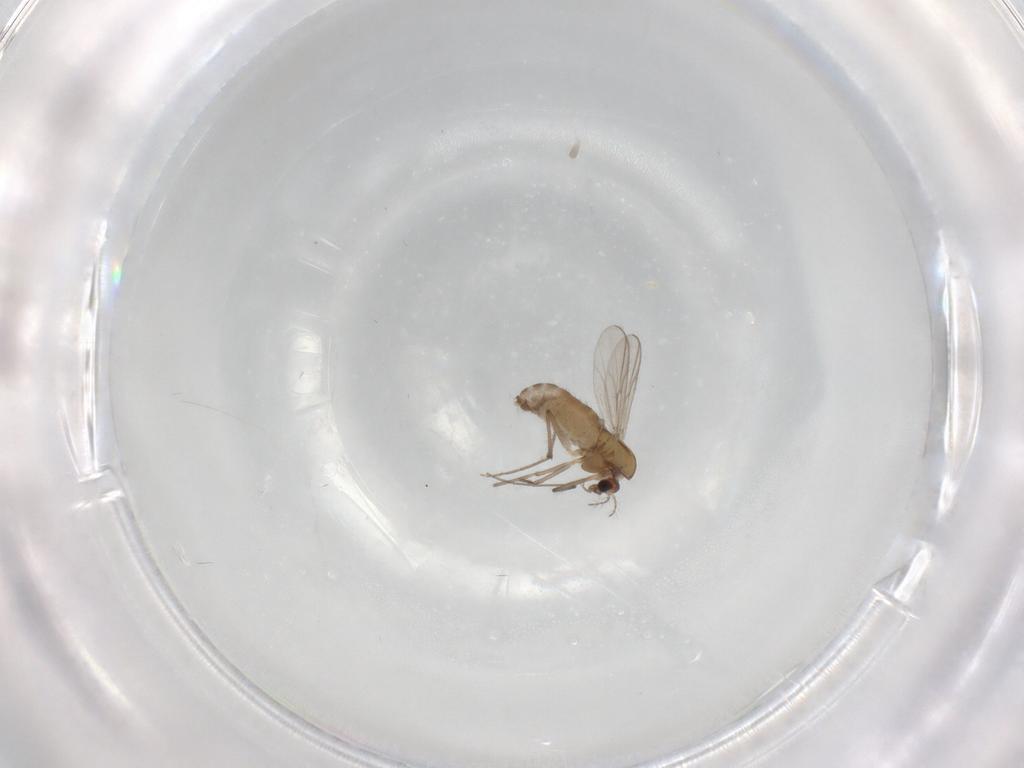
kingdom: Animalia
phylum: Arthropoda
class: Insecta
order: Diptera
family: Chironomidae
